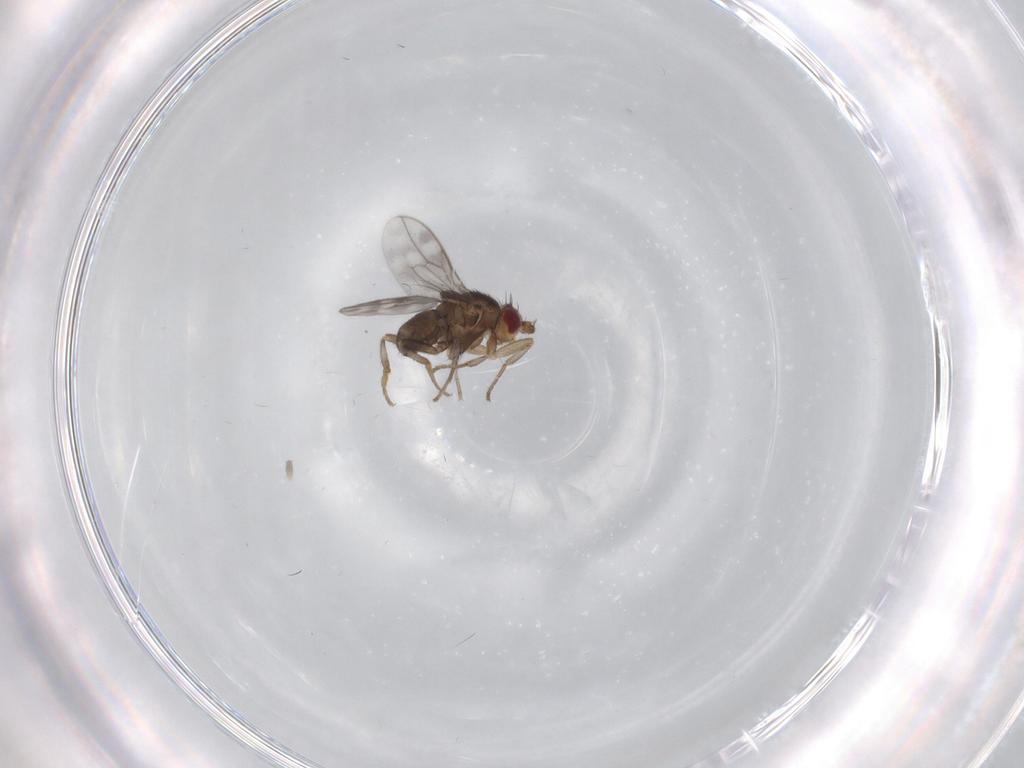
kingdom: Animalia
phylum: Arthropoda
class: Insecta
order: Diptera
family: Sphaeroceridae
